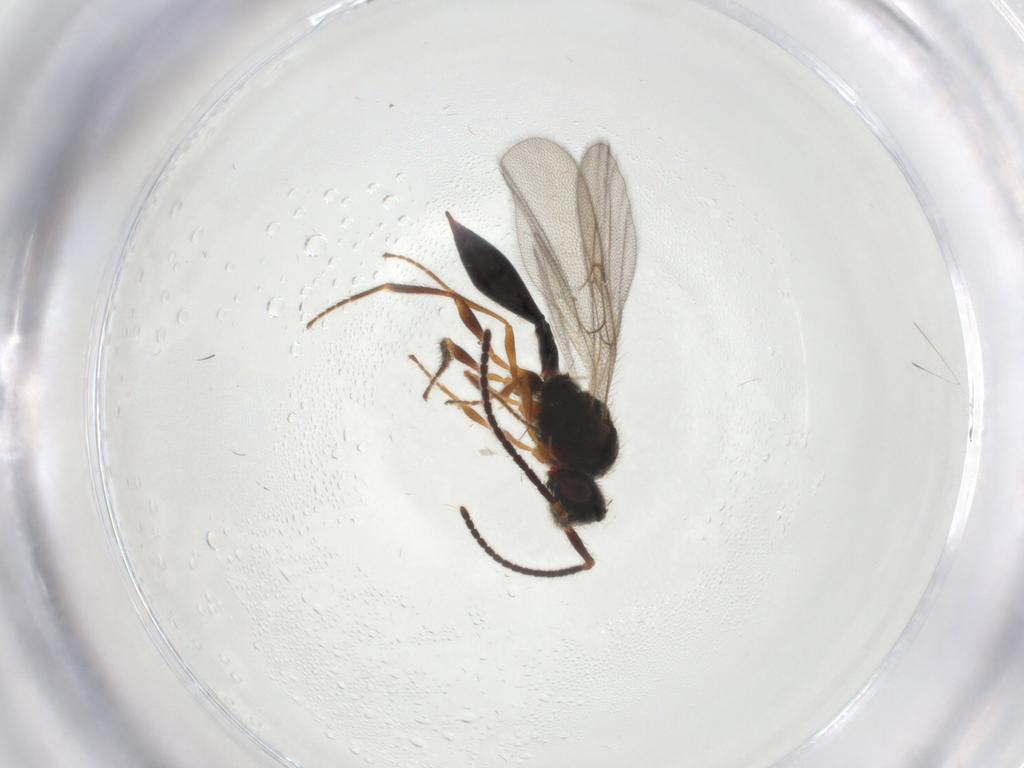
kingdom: Animalia
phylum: Arthropoda
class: Insecta
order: Hymenoptera
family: Diapriidae
